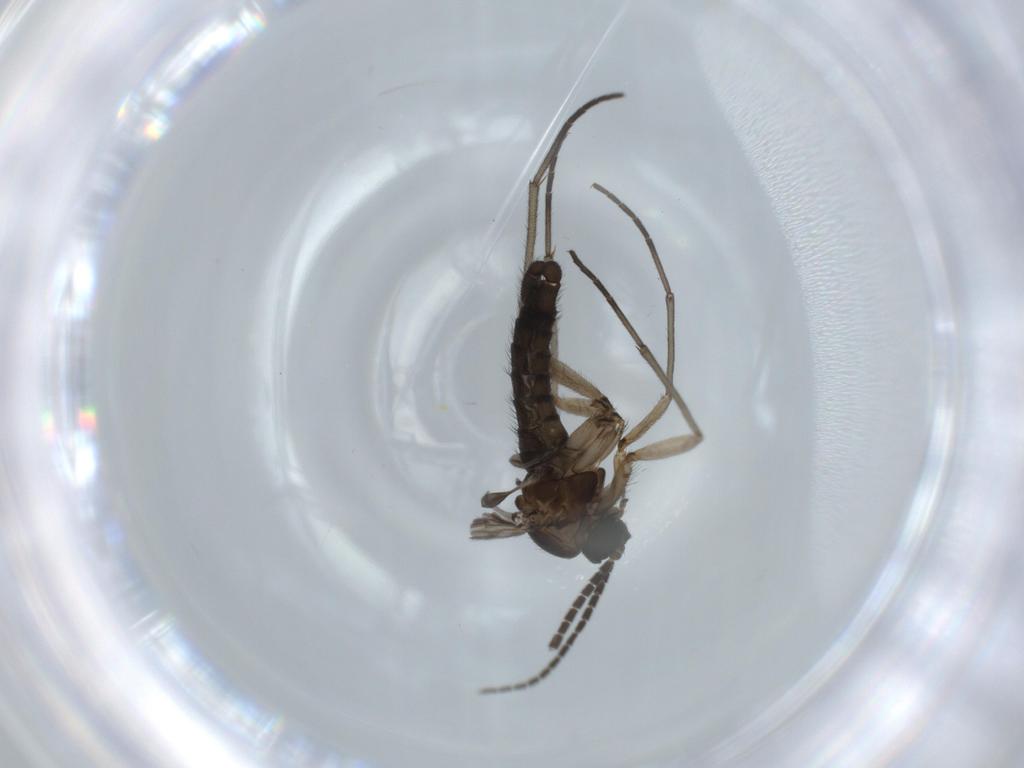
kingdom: Animalia
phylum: Arthropoda
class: Insecta
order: Diptera
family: Sciaridae
